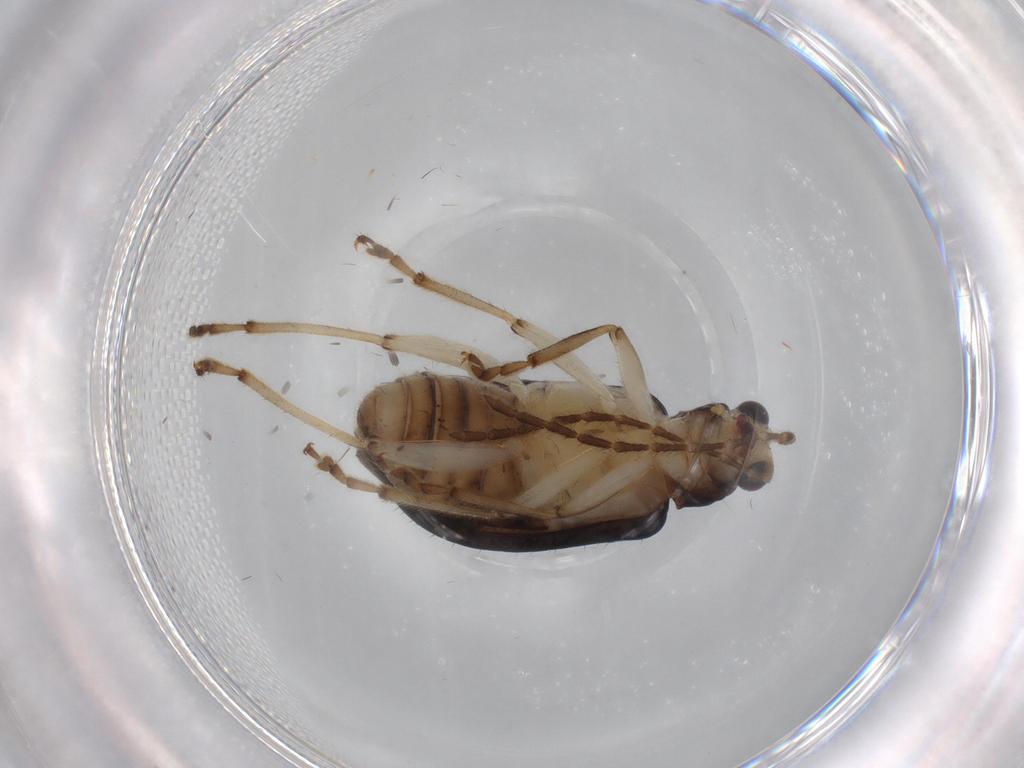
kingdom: Animalia
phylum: Arthropoda
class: Insecta
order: Coleoptera
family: Chrysomelidae
